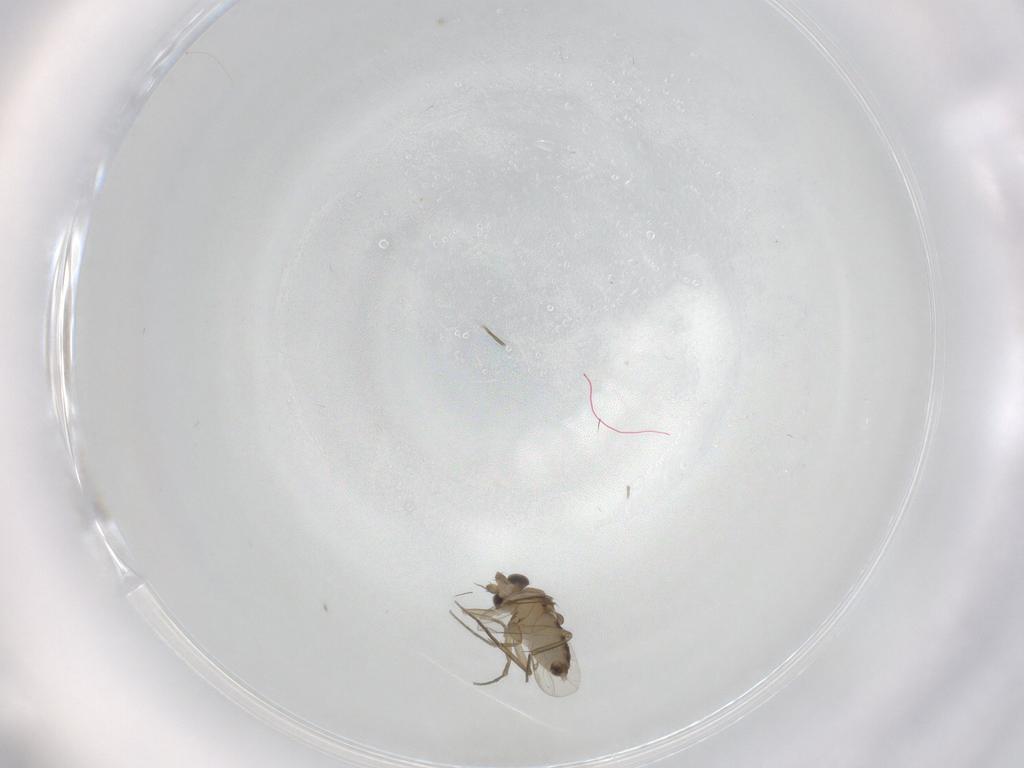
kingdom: Animalia
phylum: Arthropoda
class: Insecta
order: Diptera
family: Phoridae
